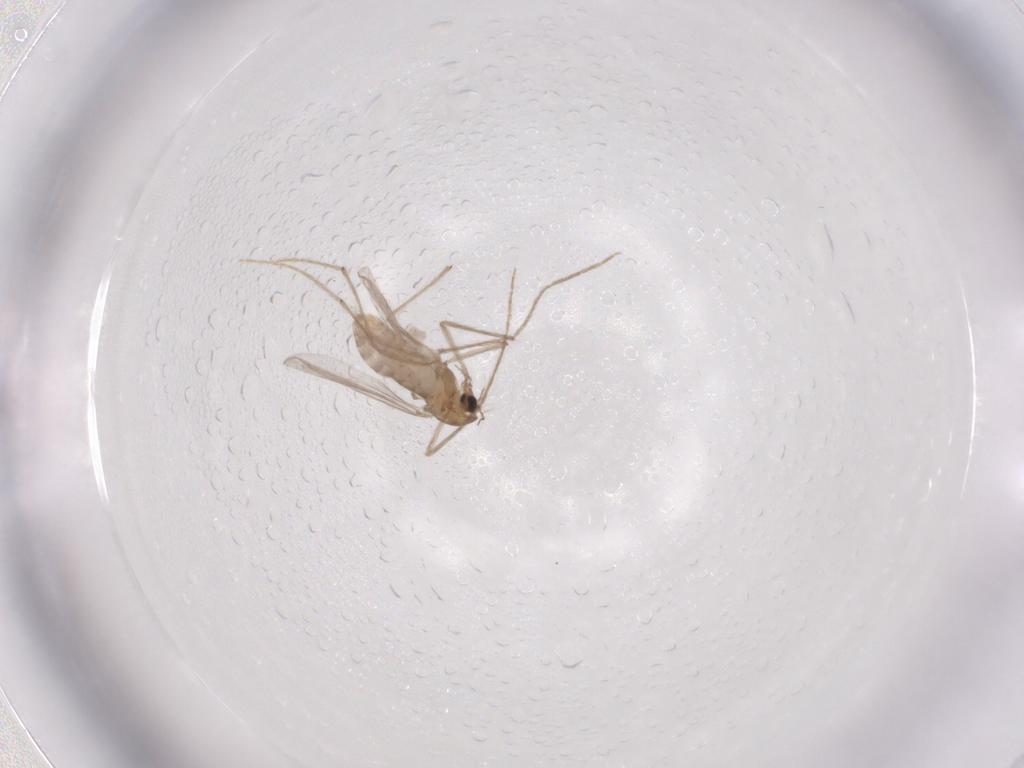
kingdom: Animalia
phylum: Arthropoda
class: Insecta
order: Diptera
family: Chironomidae
